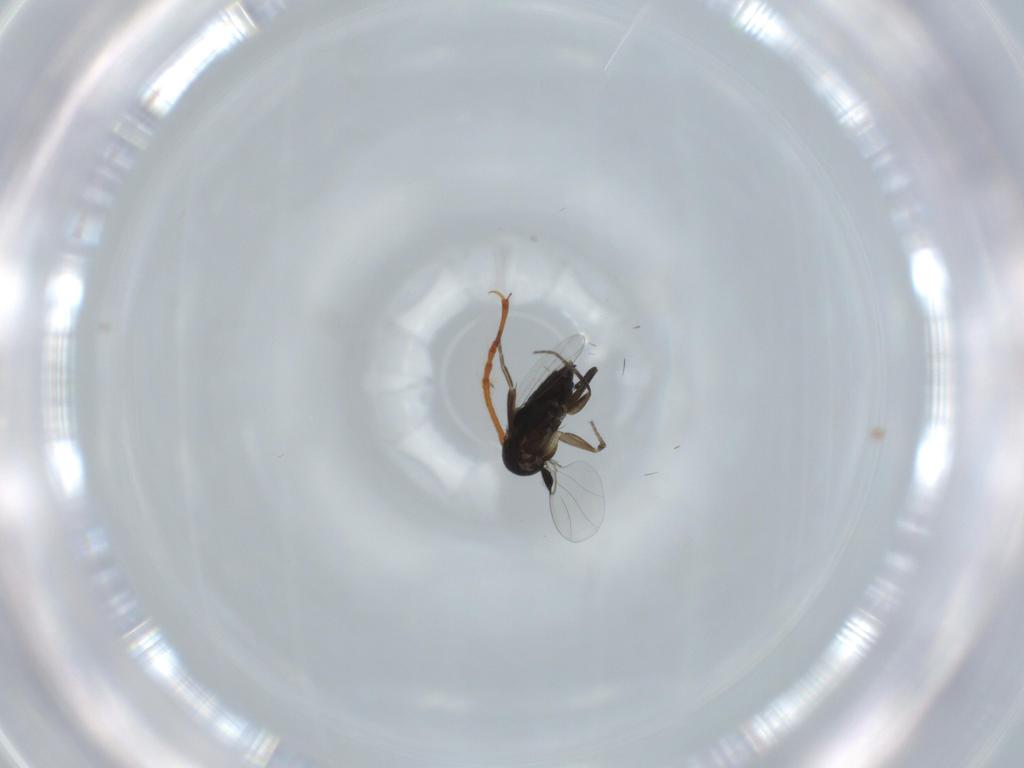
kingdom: Animalia
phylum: Arthropoda
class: Insecta
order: Diptera
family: Phoridae
